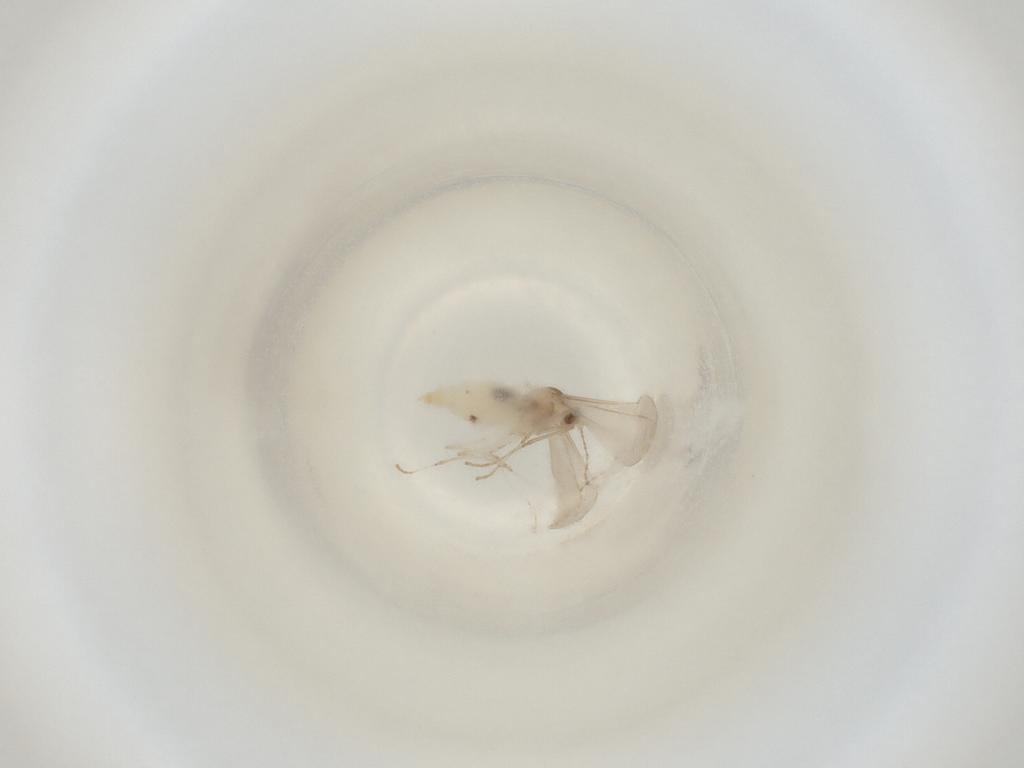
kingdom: Animalia
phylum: Arthropoda
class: Insecta
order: Diptera
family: Cecidomyiidae
